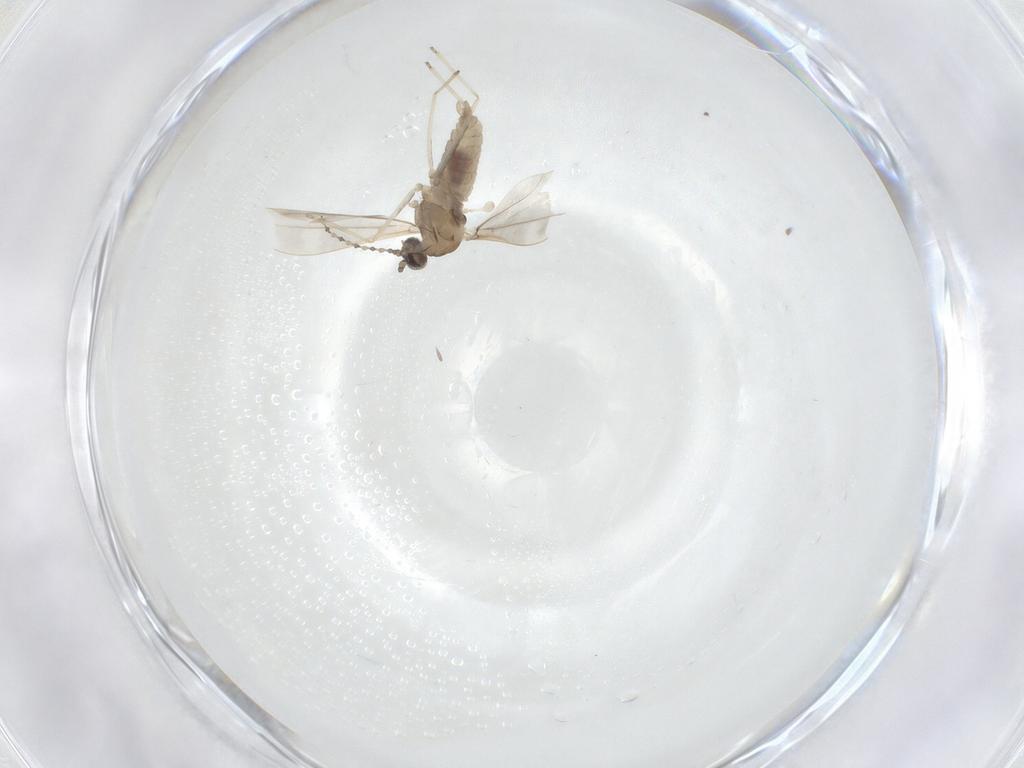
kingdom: Animalia
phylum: Arthropoda
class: Insecta
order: Diptera
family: Cecidomyiidae
